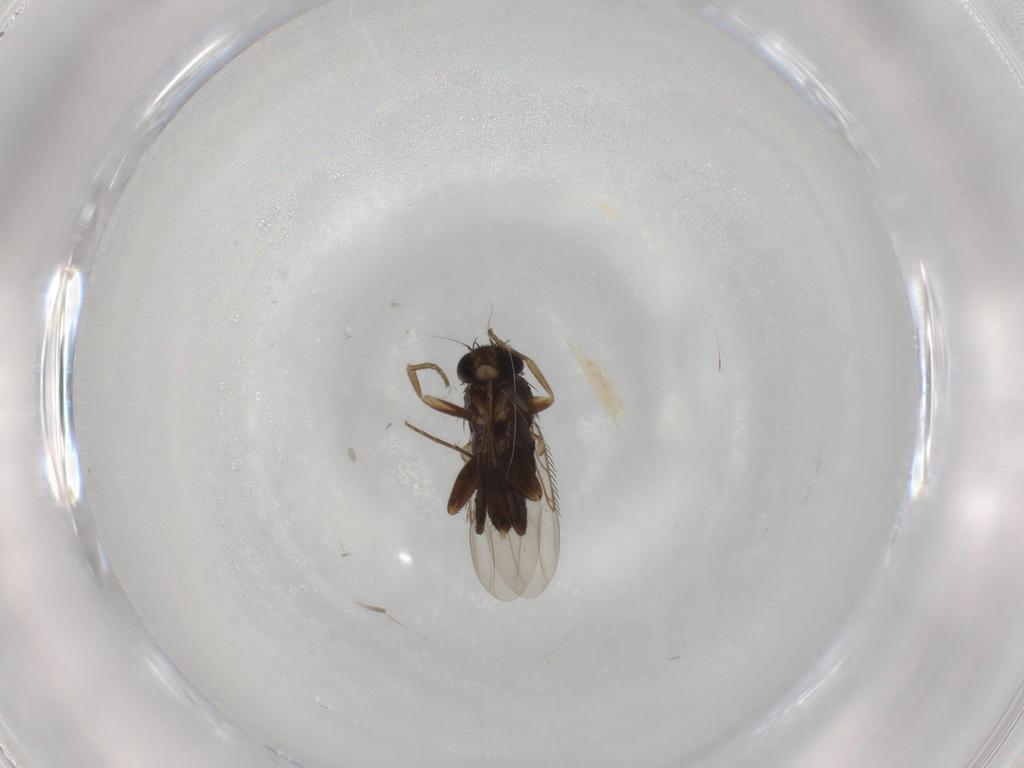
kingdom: Animalia
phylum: Arthropoda
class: Insecta
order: Diptera
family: Phoridae
